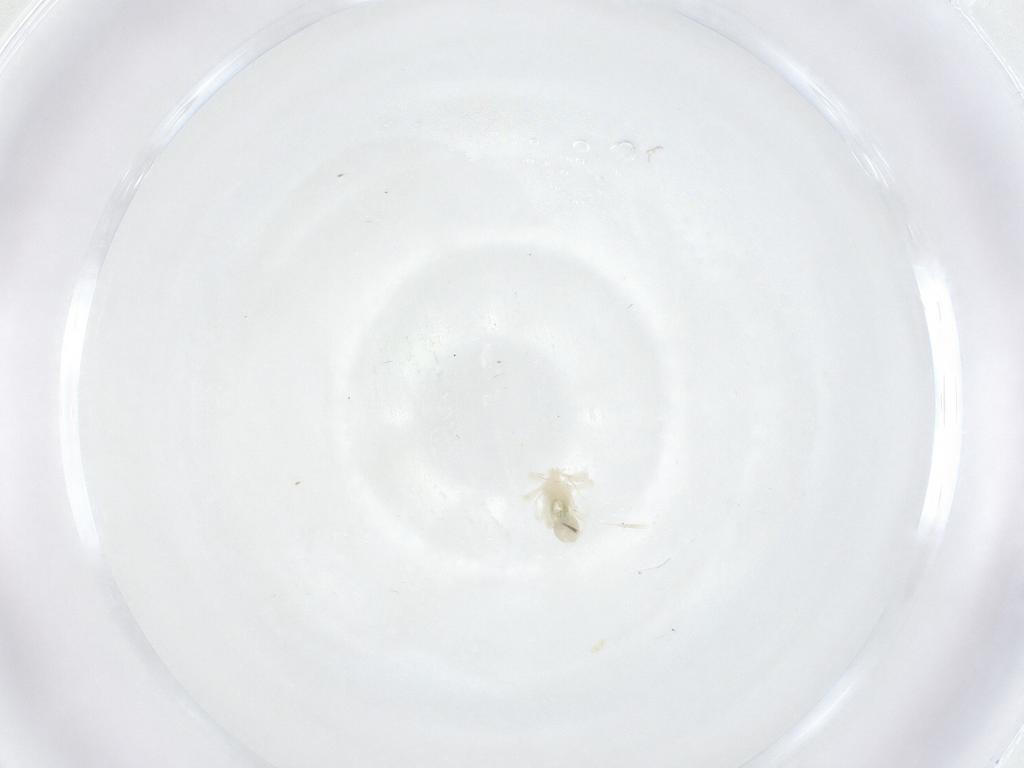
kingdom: Animalia
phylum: Arthropoda
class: Arachnida
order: Trombidiformes
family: Anystidae
